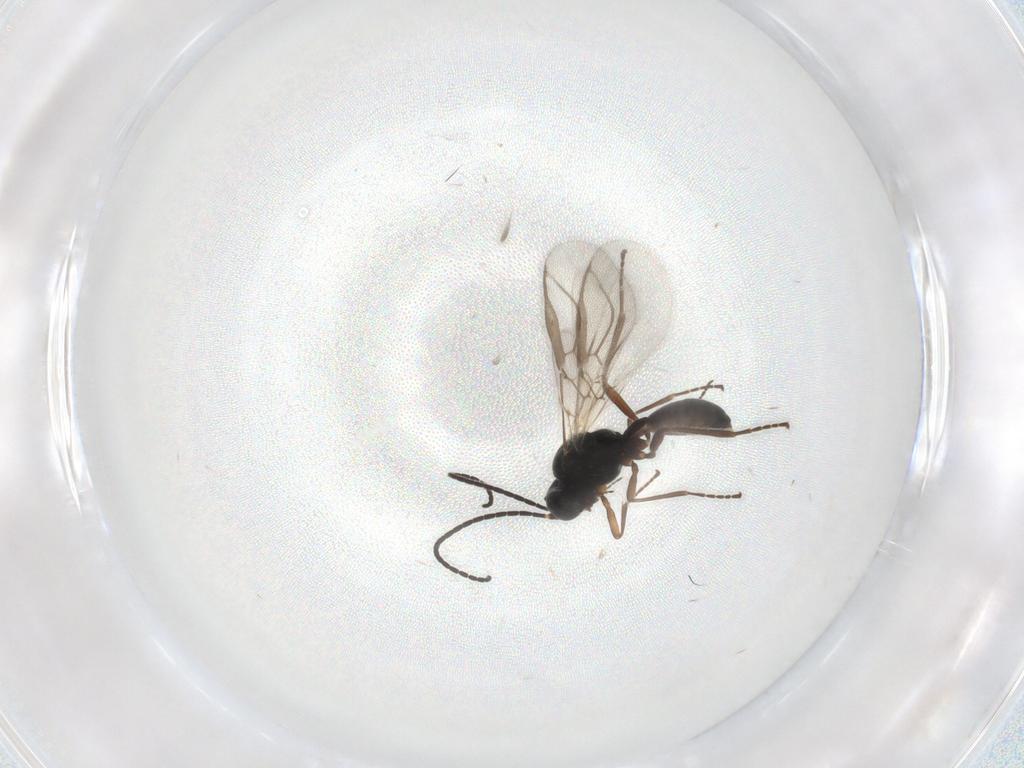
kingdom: Animalia
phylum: Arthropoda
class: Insecta
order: Hymenoptera
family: Braconidae
